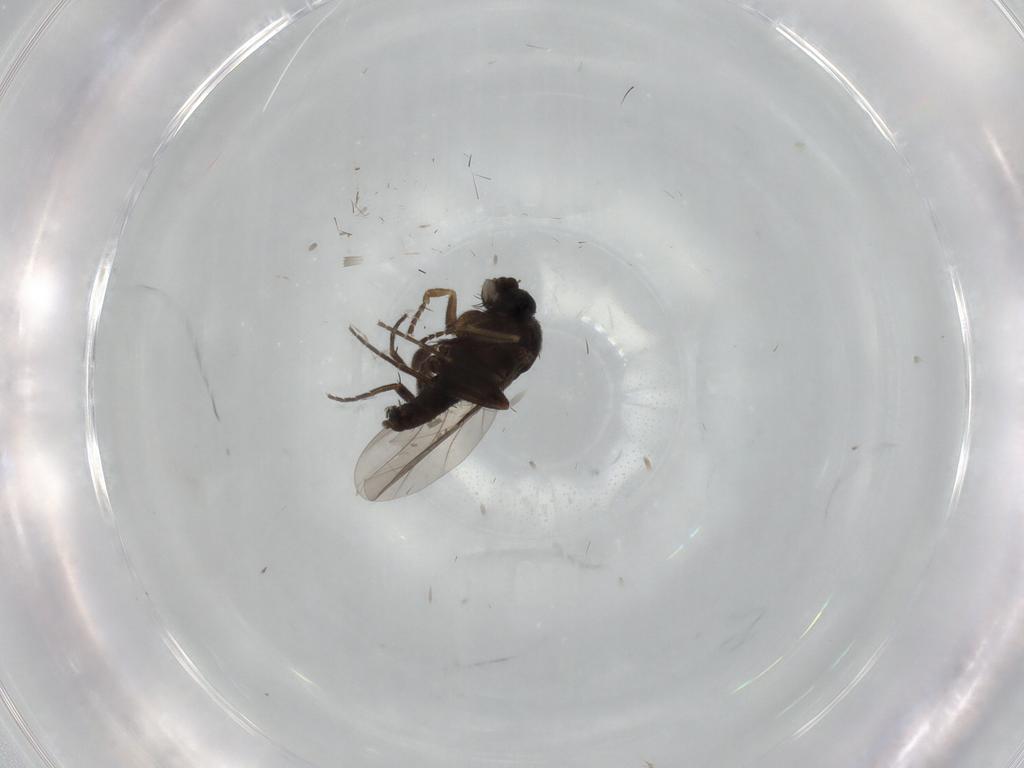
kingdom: Animalia
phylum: Arthropoda
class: Insecta
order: Diptera
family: Phoridae
